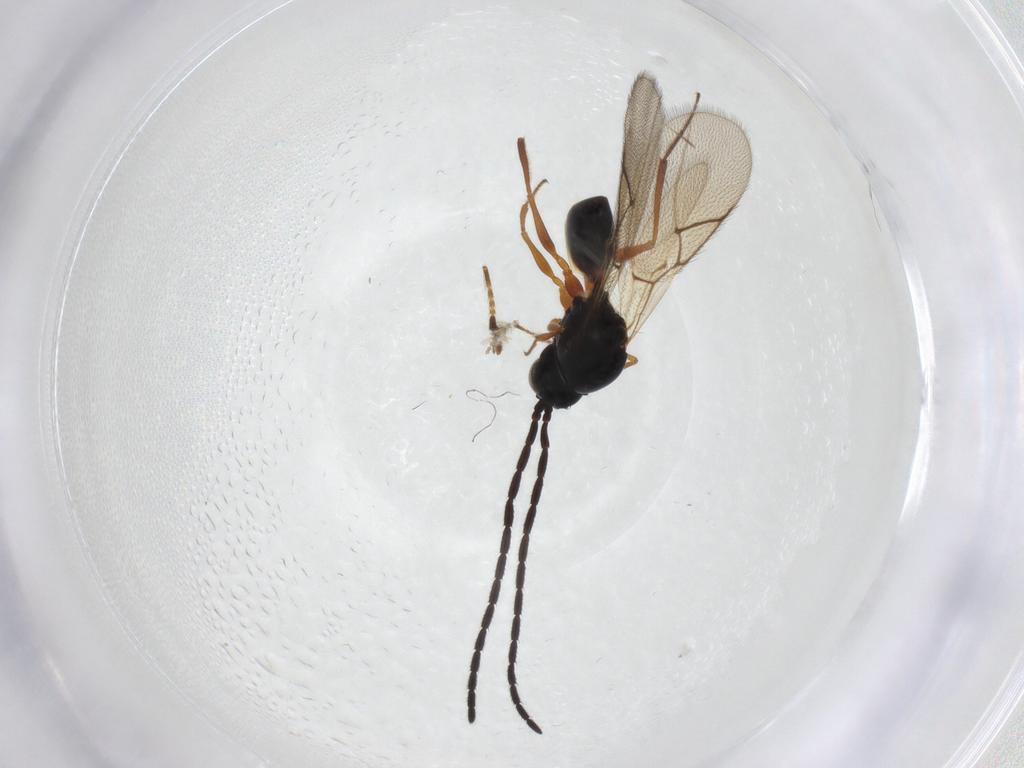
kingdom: Animalia
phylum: Arthropoda
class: Insecta
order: Hymenoptera
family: Figitidae
